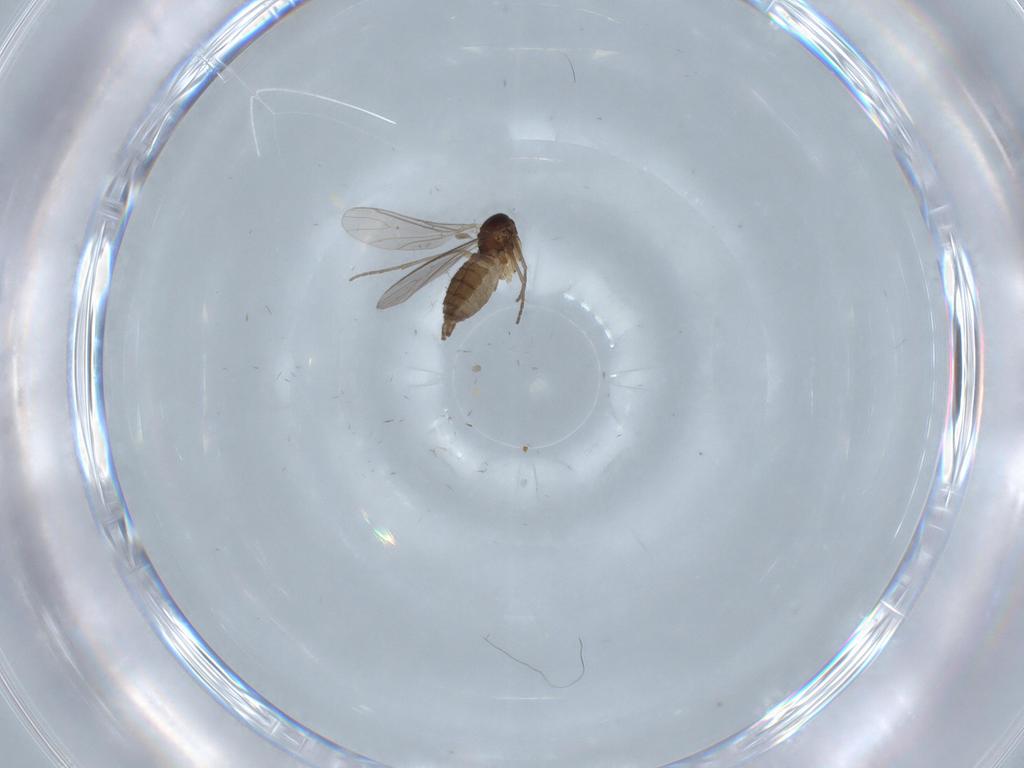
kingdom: Animalia
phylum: Arthropoda
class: Insecta
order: Diptera
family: Sciaridae
